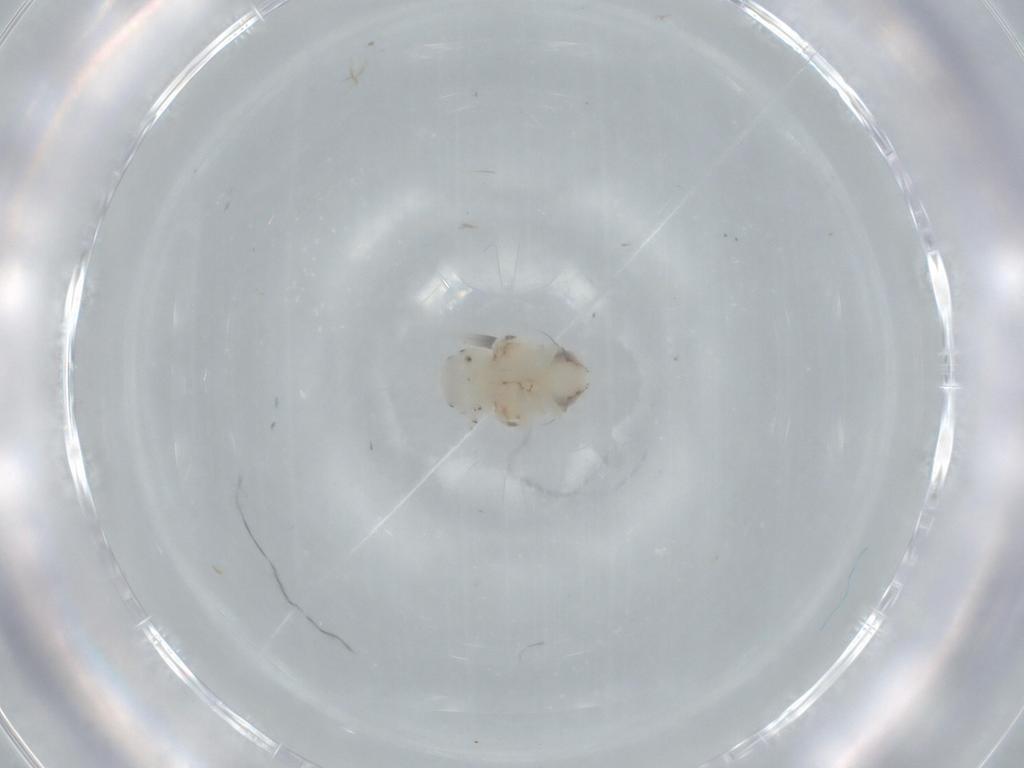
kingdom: Animalia
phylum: Arthropoda
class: Insecta
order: Hemiptera
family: Nogodinidae
